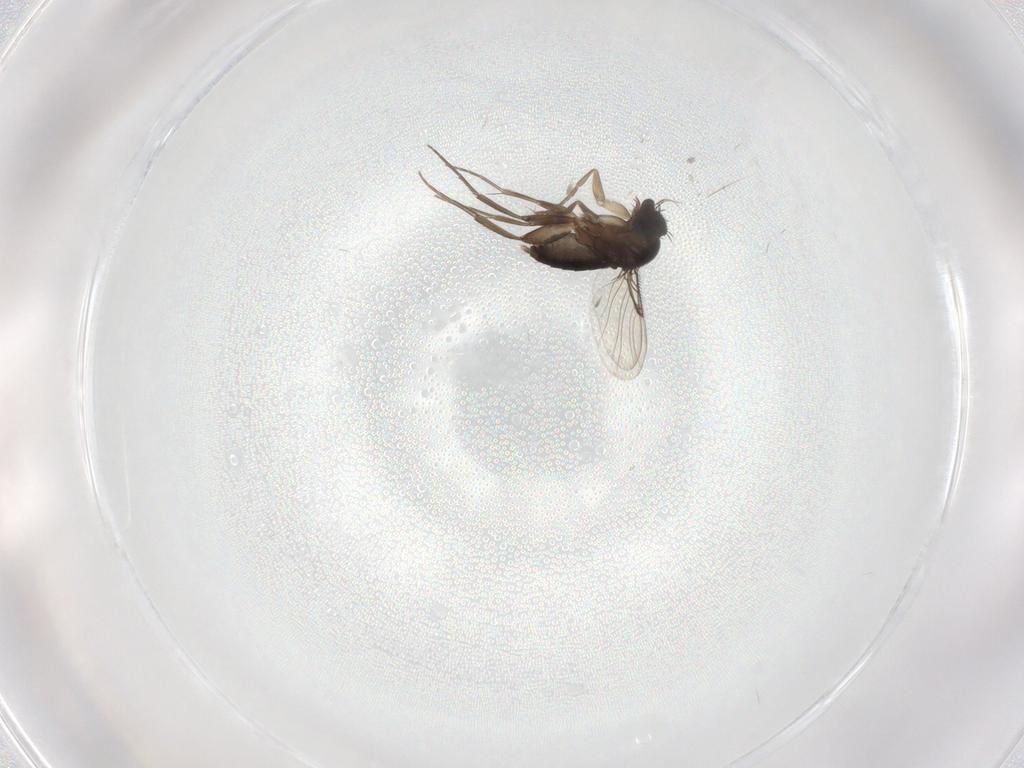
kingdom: Animalia
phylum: Arthropoda
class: Insecta
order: Diptera
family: Phoridae
